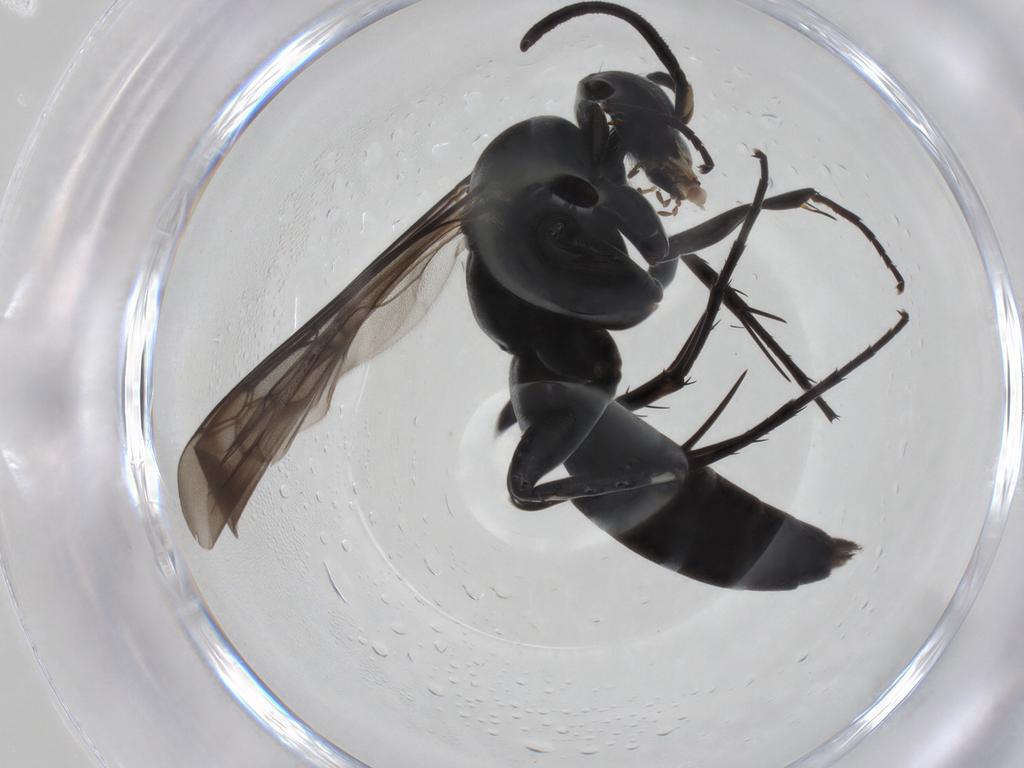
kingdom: Animalia
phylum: Arthropoda
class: Insecta
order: Hymenoptera
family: Pompilidae
